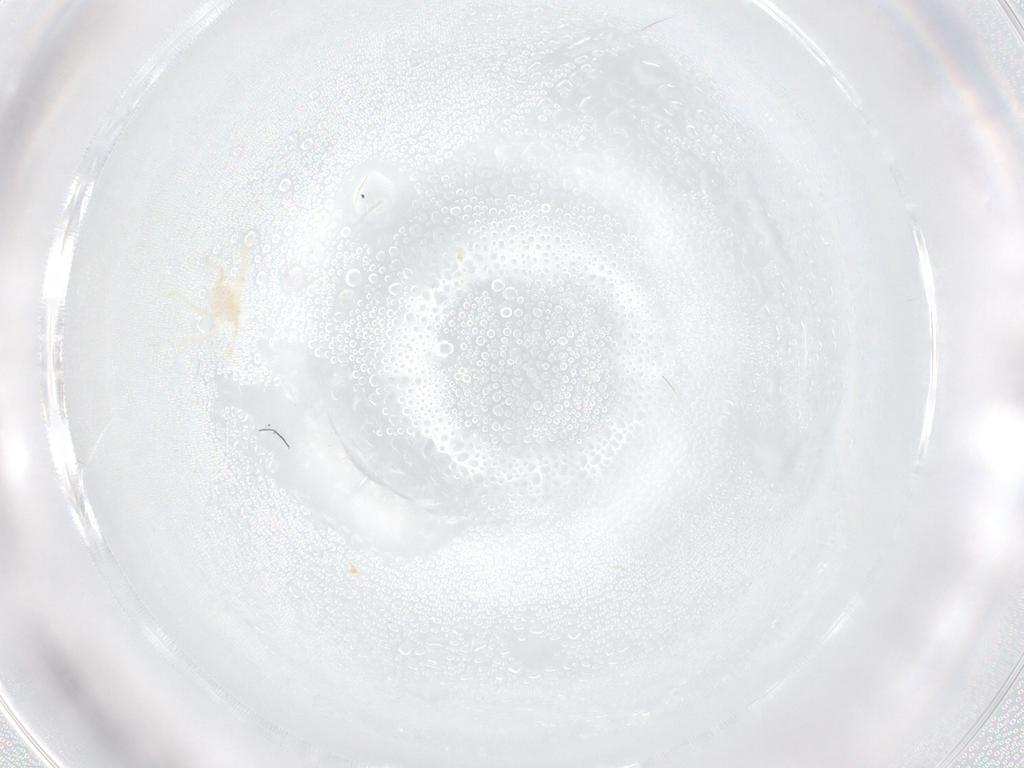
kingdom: Animalia
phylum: Arthropoda
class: Arachnida
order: Trombidiformes
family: Erythraeidae
